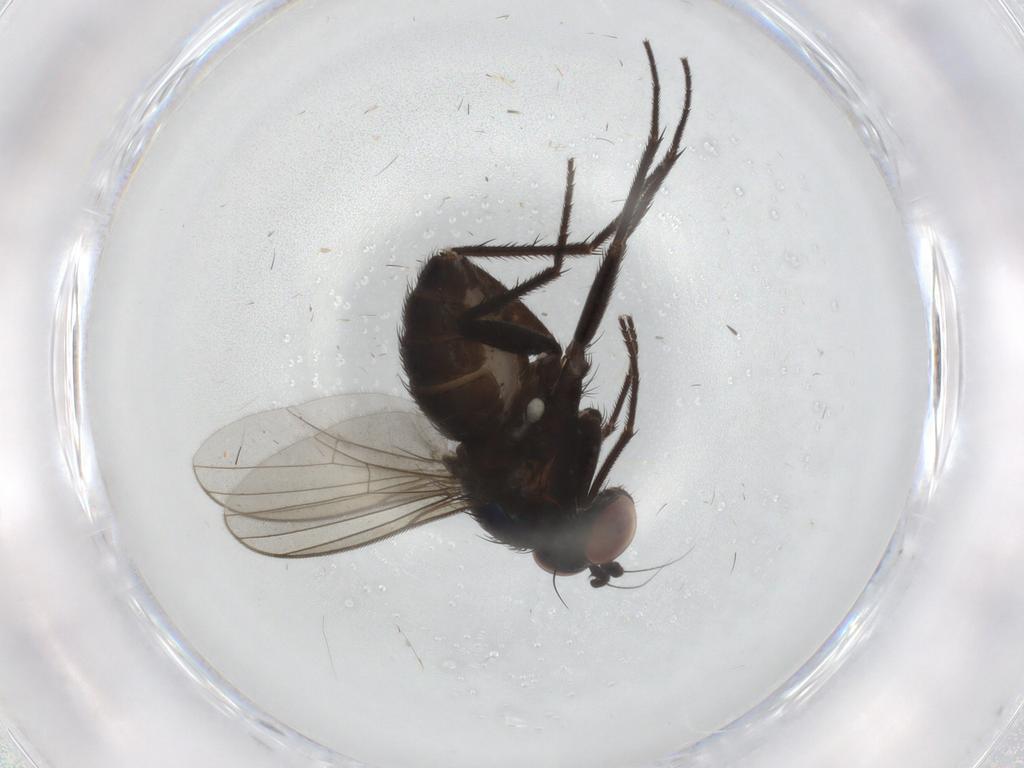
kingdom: Animalia
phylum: Arthropoda
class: Insecta
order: Diptera
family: Dolichopodidae
